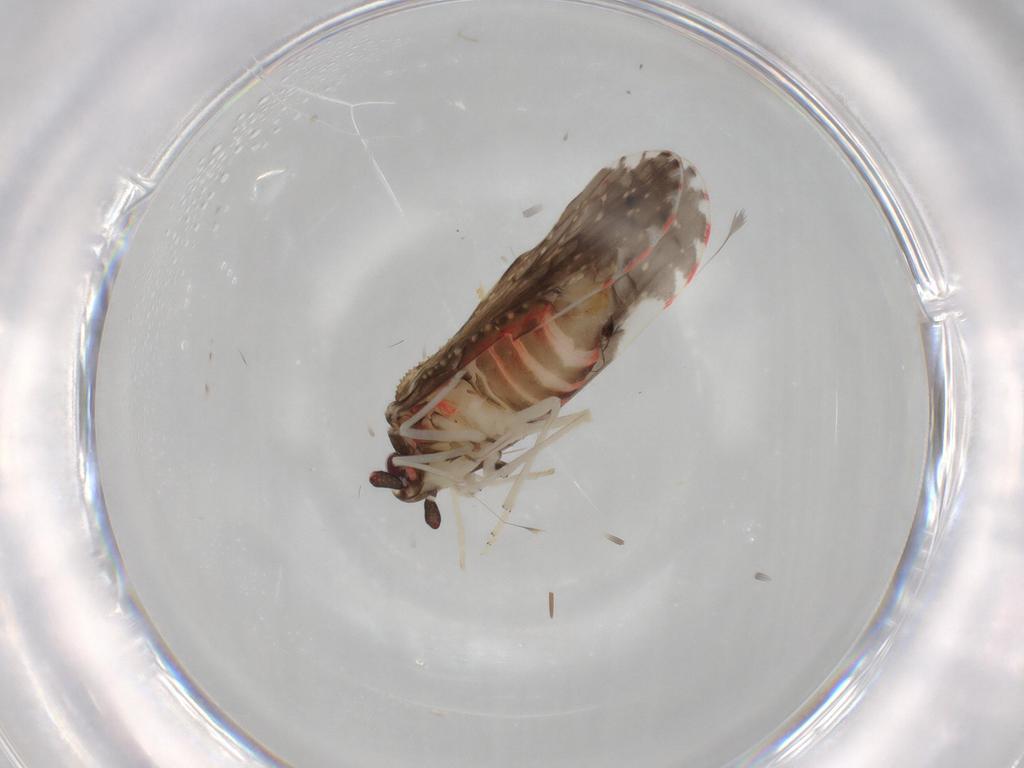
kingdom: Animalia
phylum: Arthropoda
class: Insecta
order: Hemiptera
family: Derbidae
